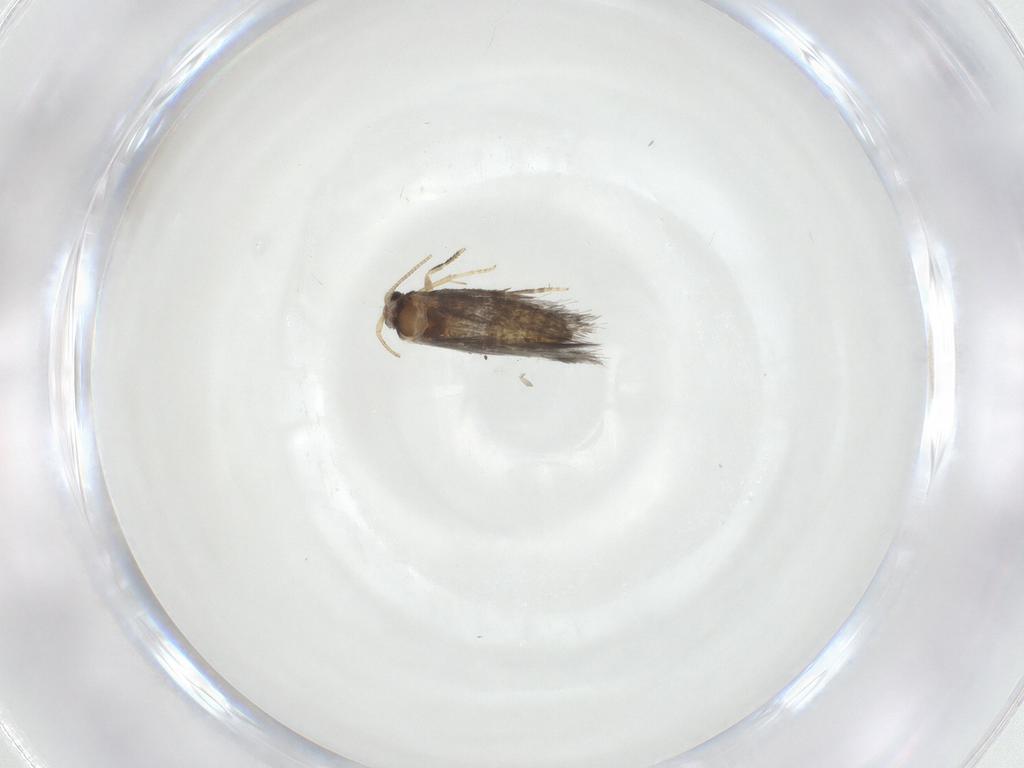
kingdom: Animalia
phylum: Arthropoda
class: Insecta
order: Lepidoptera
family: Nepticulidae
